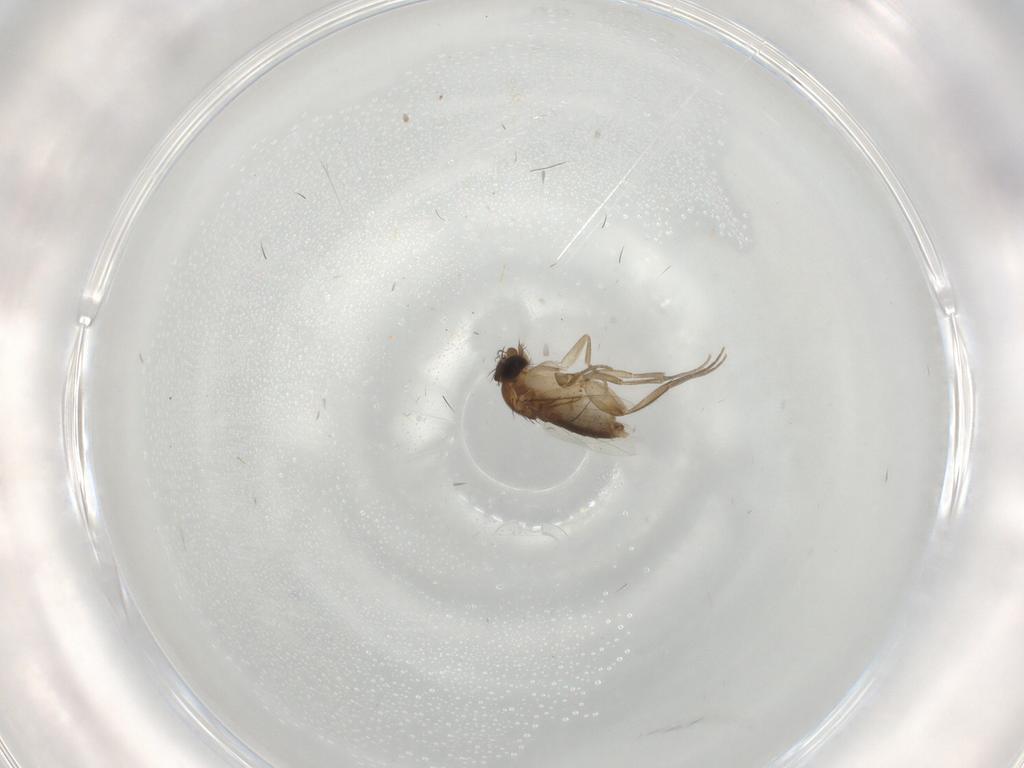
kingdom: Animalia
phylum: Arthropoda
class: Insecta
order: Diptera
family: Phoridae
